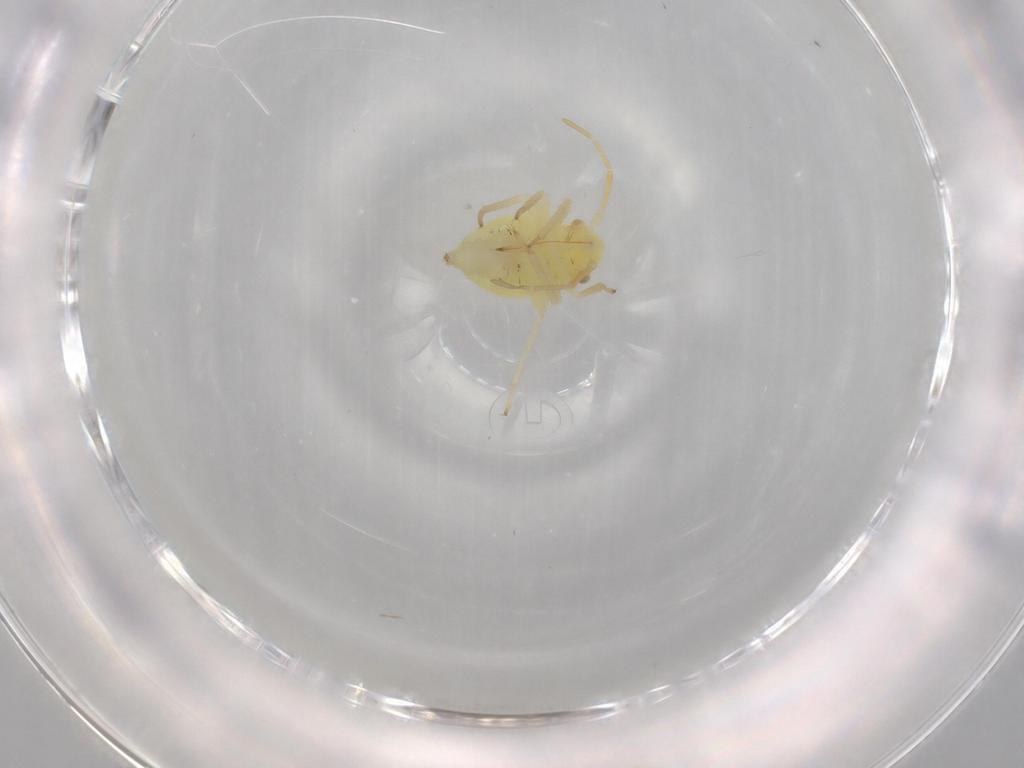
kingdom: Animalia
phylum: Arthropoda
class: Insecta
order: Hemiptera
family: Miridae
